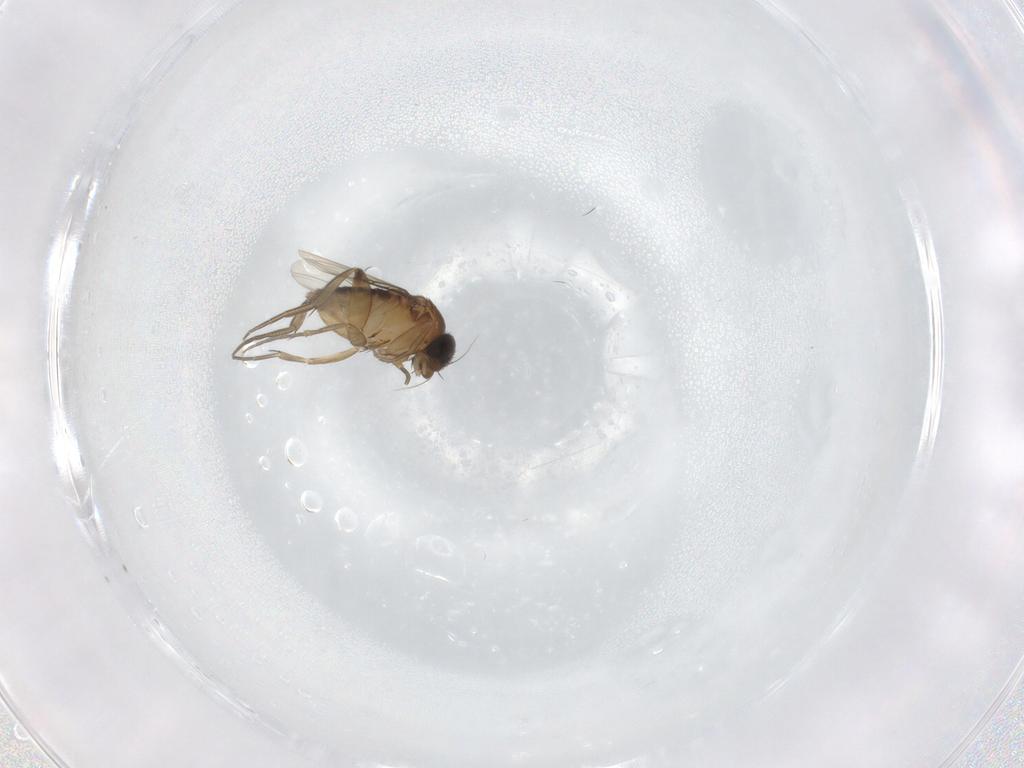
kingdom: Animalia
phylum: Arthropoda
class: Insecta
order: Diptera
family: Phoridae
